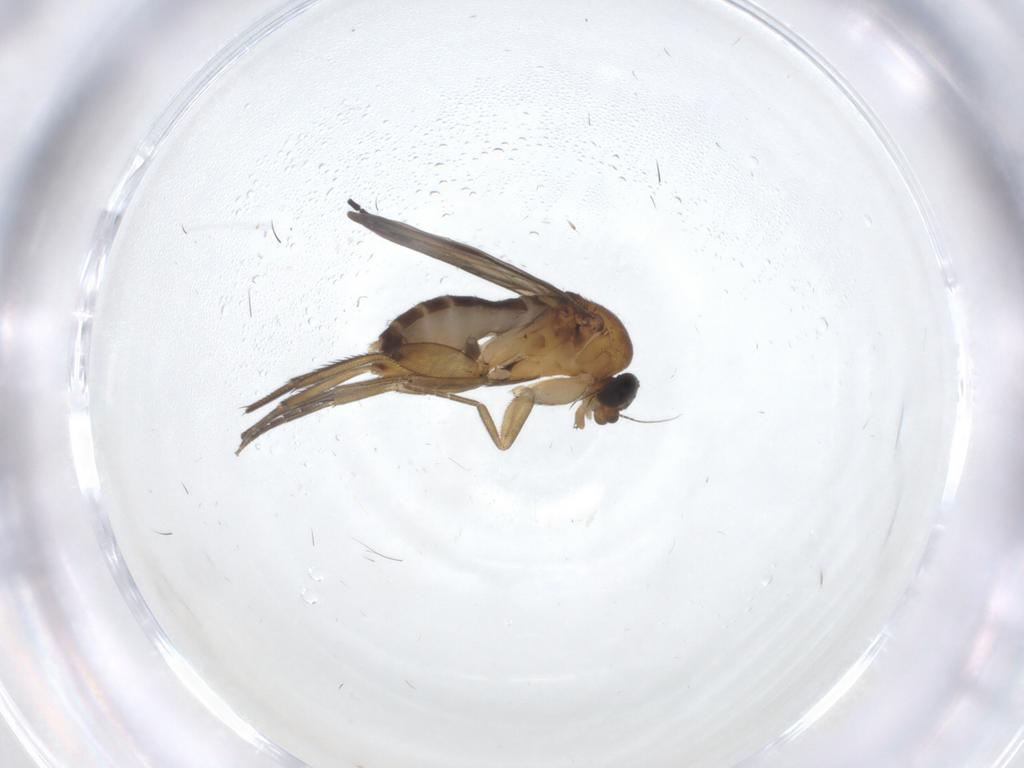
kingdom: Animalia
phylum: Arthropoda
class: Insecta
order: Diptera
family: Phoridae
